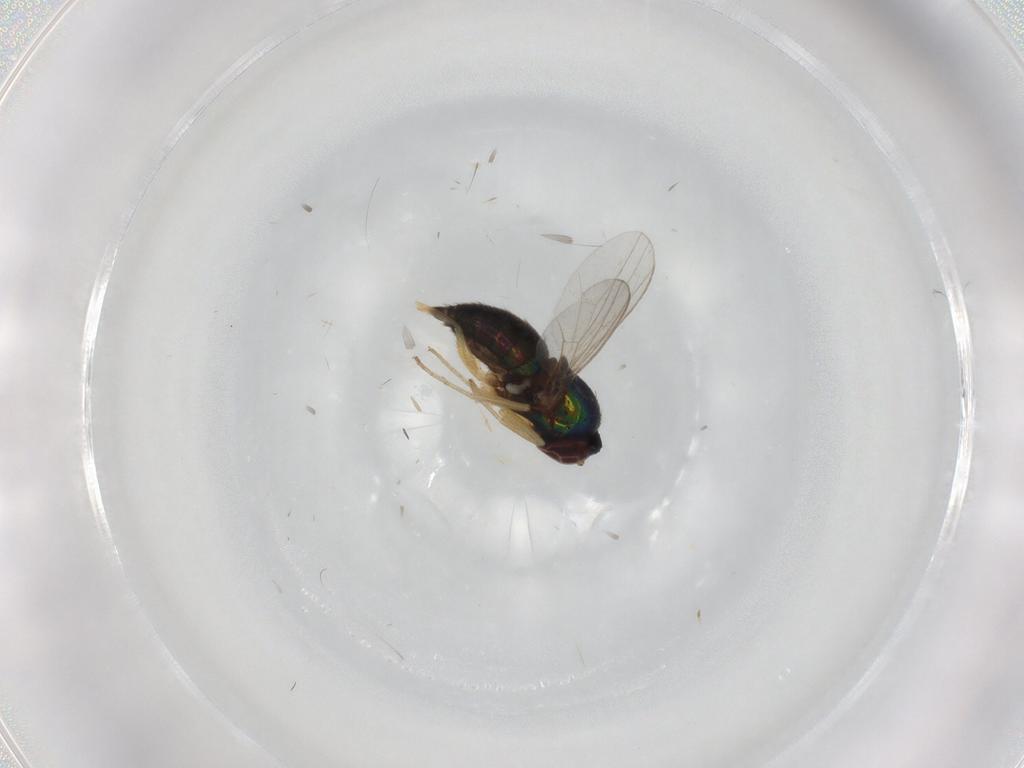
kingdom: Animalia
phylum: Arthropoda
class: Insecta
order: Diptera
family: Dolichopodidae
